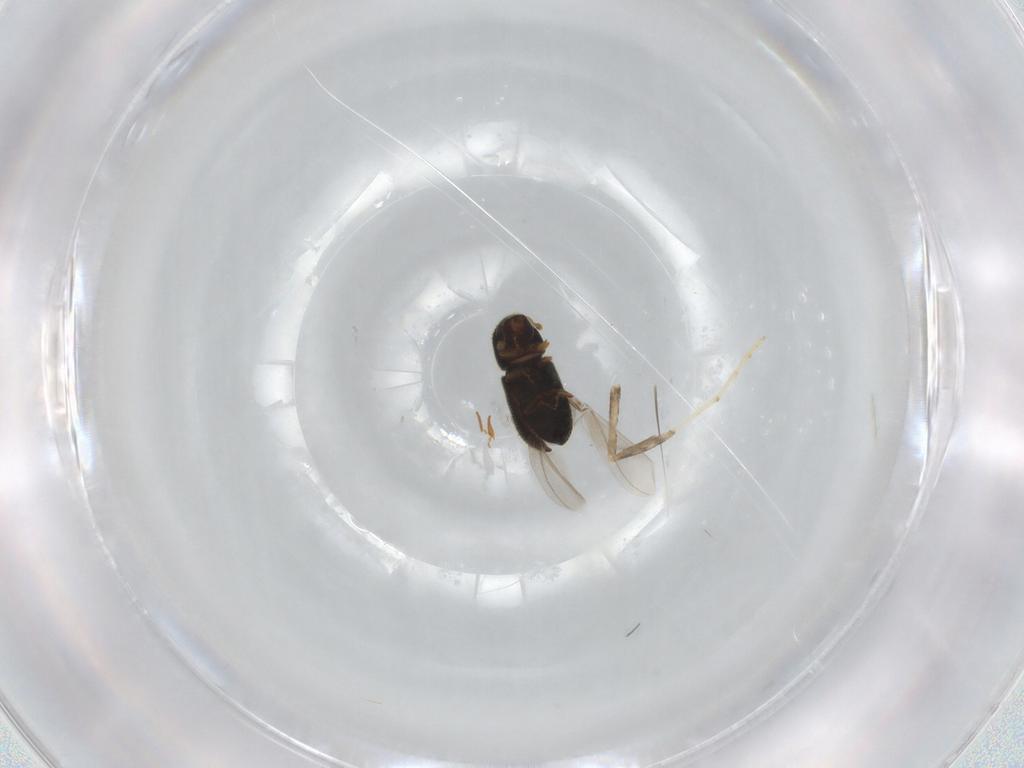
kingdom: Animalia
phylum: Arthropoda
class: Insecta
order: Coleoptera
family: Curculionidae
